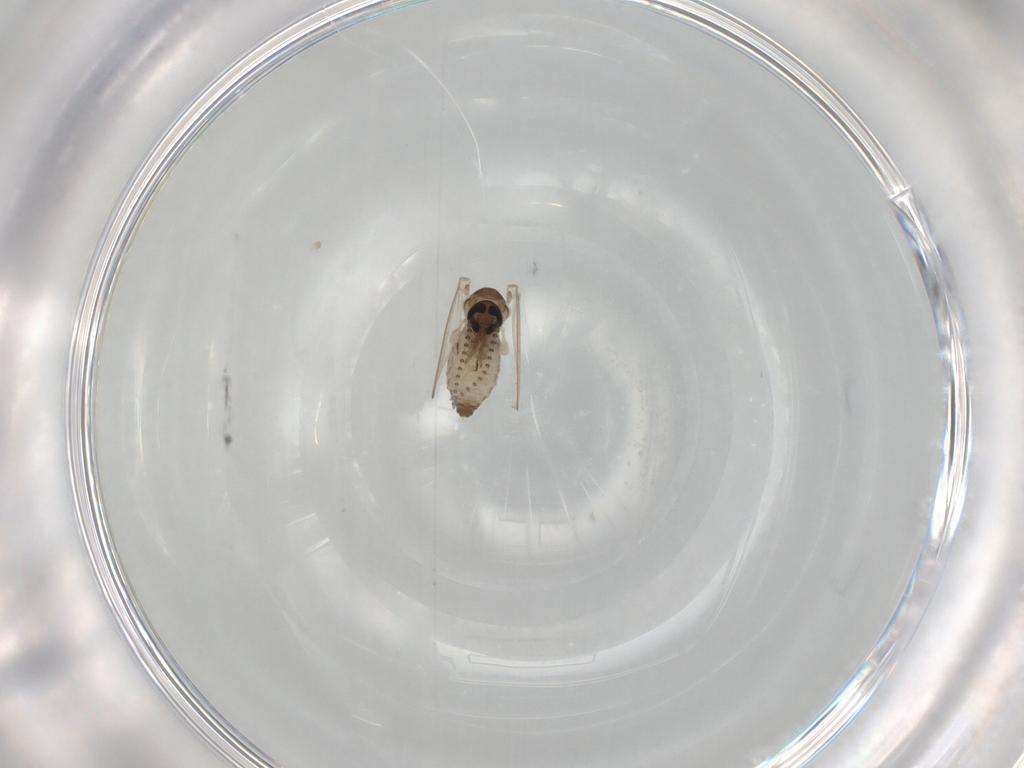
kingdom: Animalia
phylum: Arthropoda
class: Insecta
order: Diptera
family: Psychodidae
